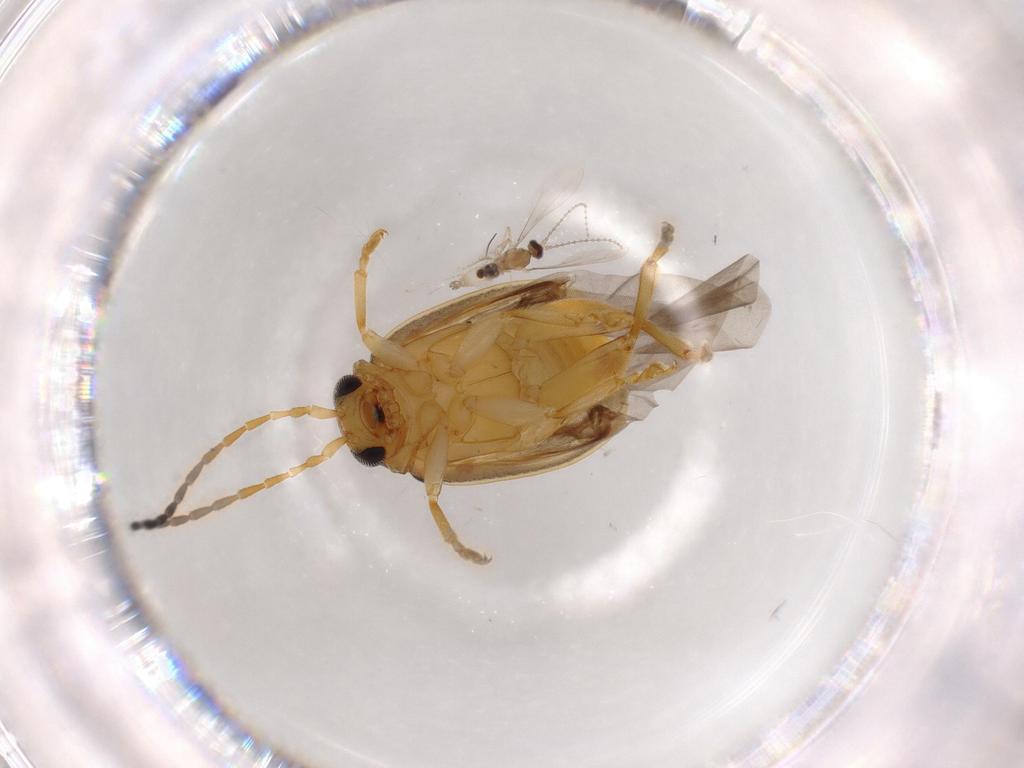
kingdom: Animalia
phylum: Arthropoda
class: Insecta
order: Coleoptera
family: Chrysomelidae
